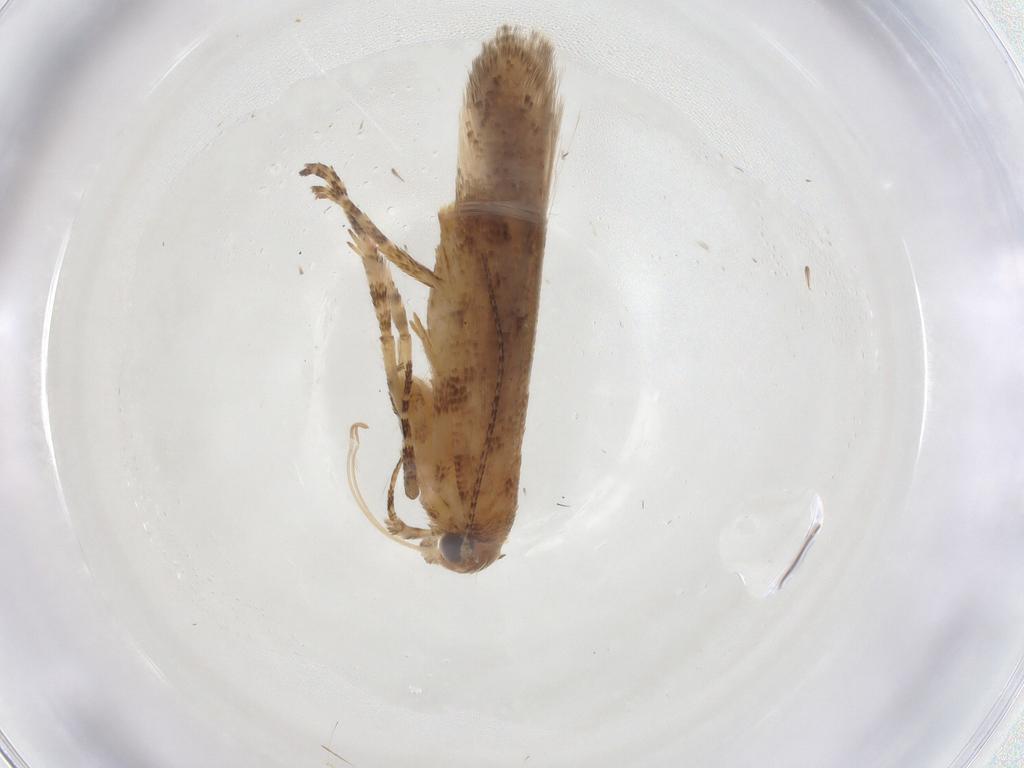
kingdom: Animalia
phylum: Arthropoda
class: Insecta
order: Lepidoptera
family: Gelechiidae
